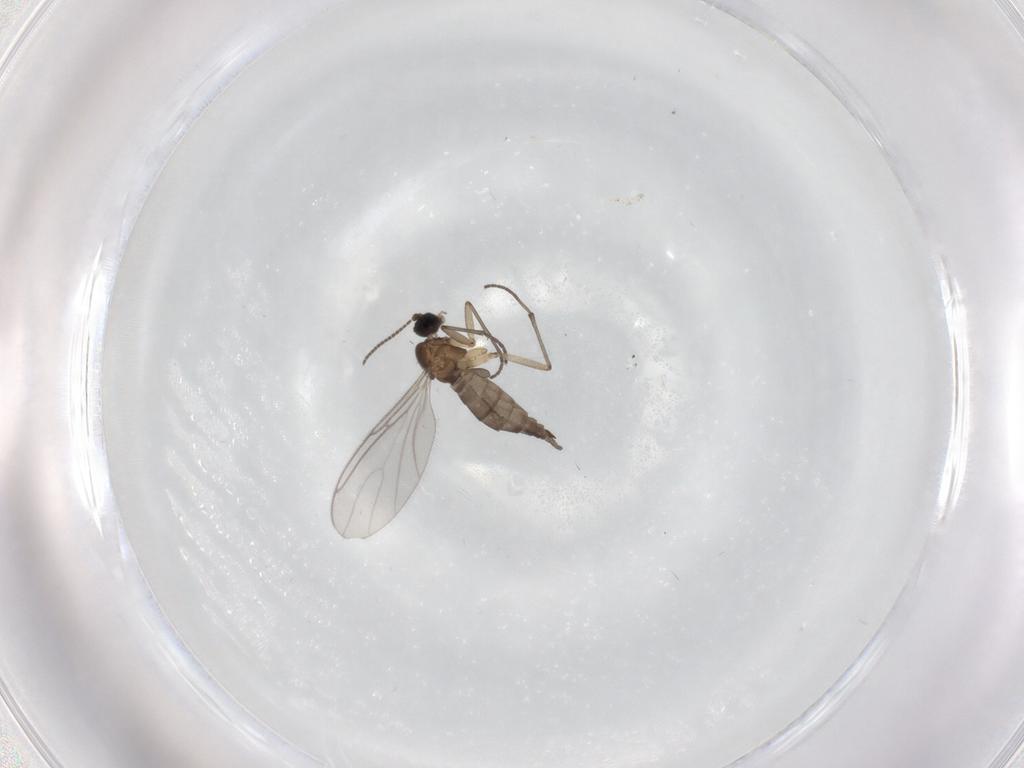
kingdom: Animalia
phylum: Arthropoda
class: Insecta
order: Diptera
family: Sciaridae
